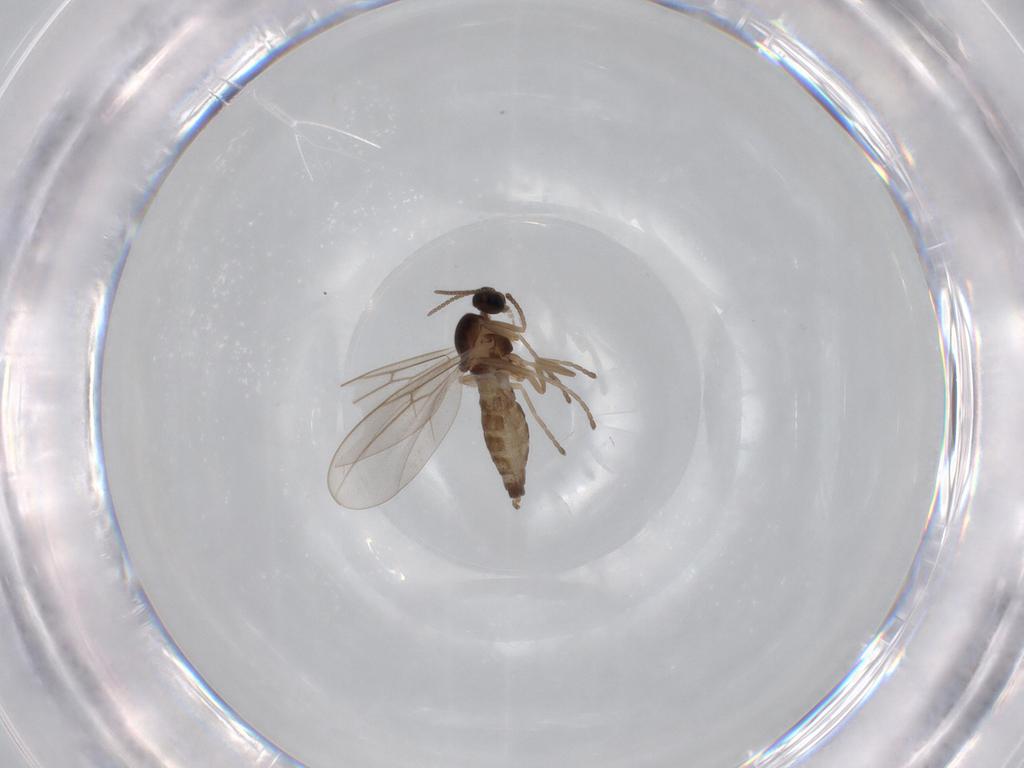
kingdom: Animalia
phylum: Arthropoda
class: Insecta
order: Diptera
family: Cecidomyiidae
